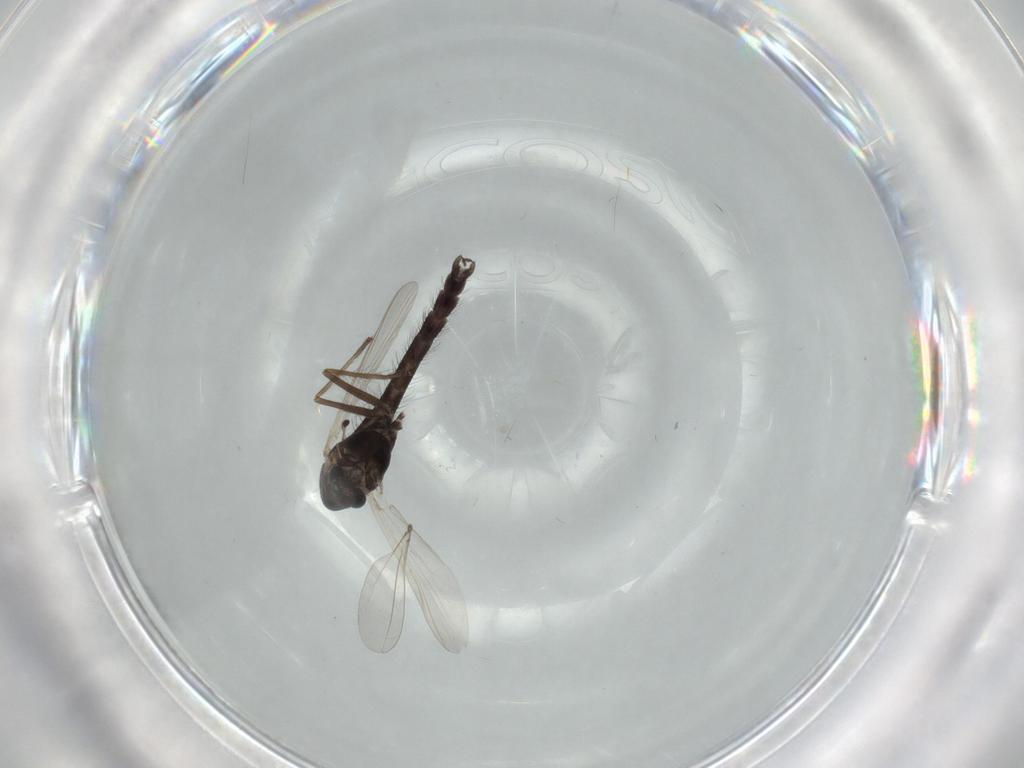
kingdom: Animalia
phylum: Arthropoda
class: Insecta
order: Diptera
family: Chironomidae
